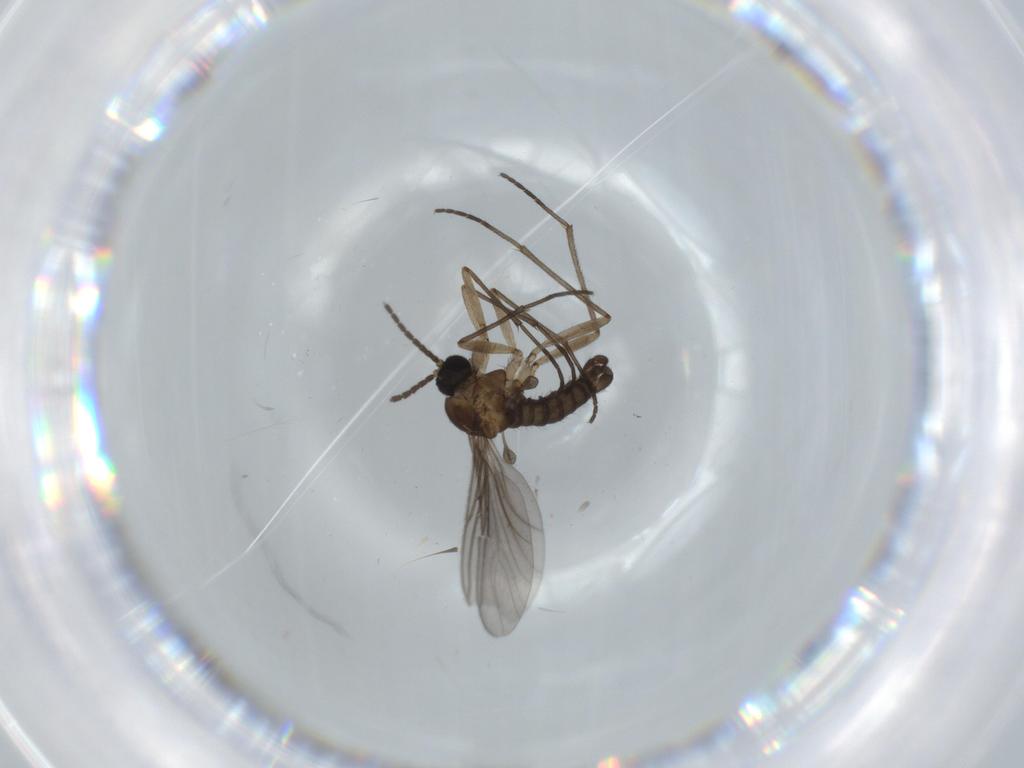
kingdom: Animalia
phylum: Arthropoda
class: Insecta
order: Diptera
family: Sciaridae
